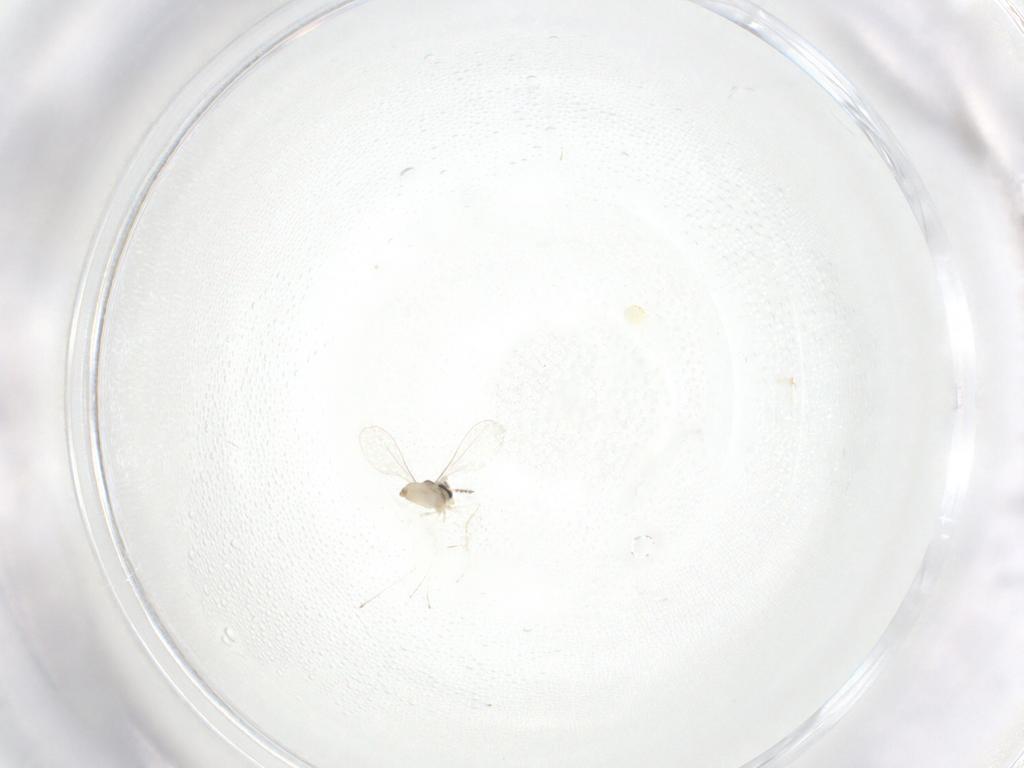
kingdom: Animalia
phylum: Arthropoda
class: Insecta
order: Diptera
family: Cecidomyiidae
